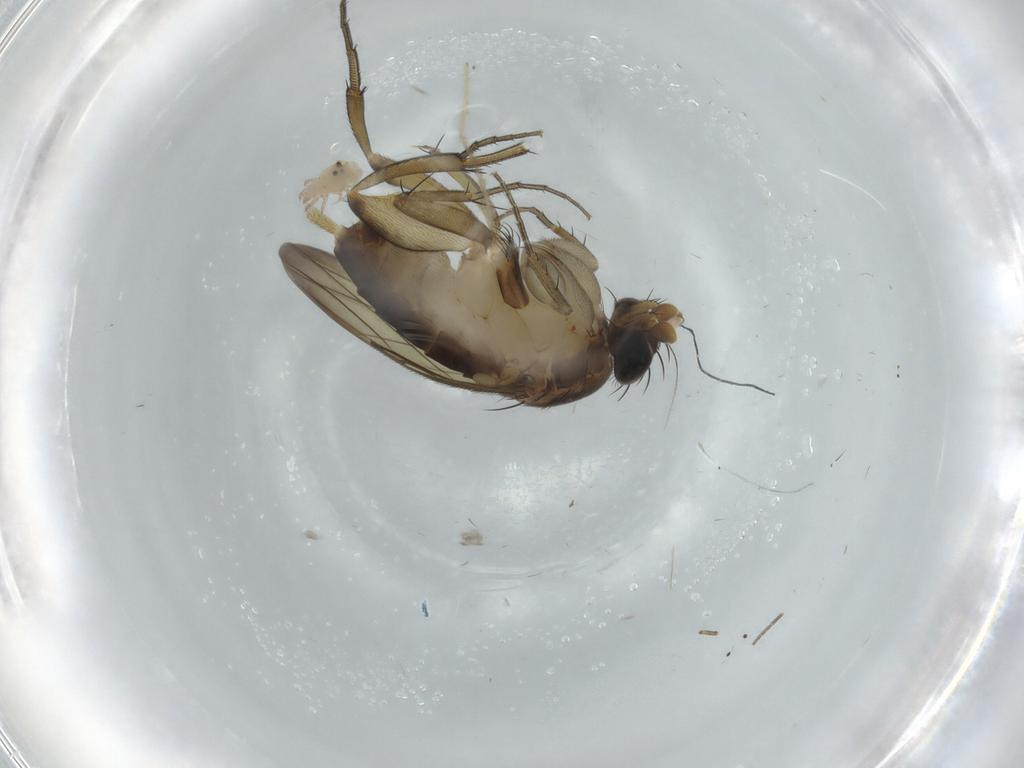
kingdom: Animalia
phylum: Arthropoda
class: Insecta
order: Diptera
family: Phoridae
